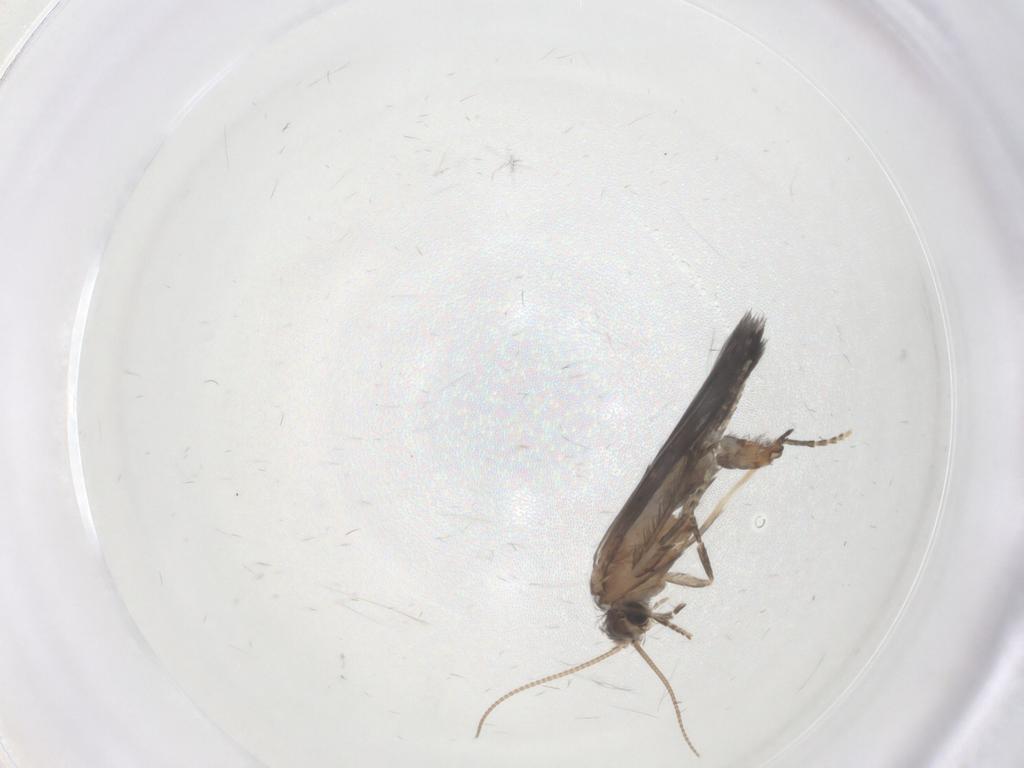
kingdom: Animalia
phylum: Arthropoda
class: Insecta
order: Trichoptera
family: Hydroptilidae
